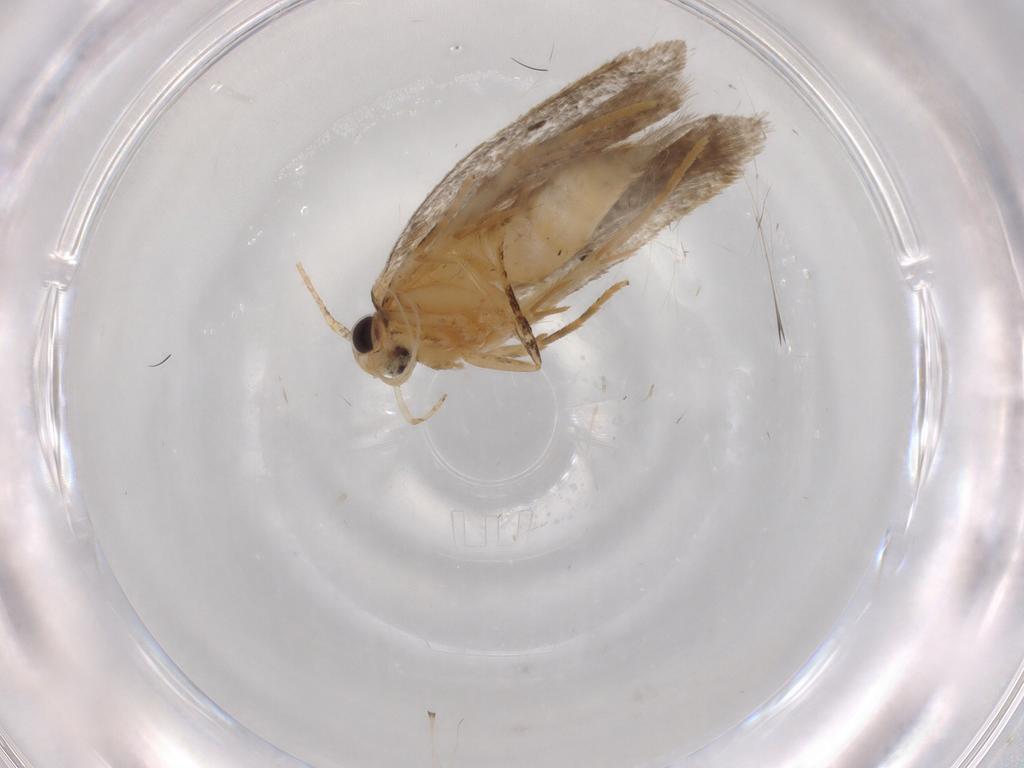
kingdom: Animalia
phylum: Arthropoda
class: Insecta
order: Lepidoptera
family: Autostichidae
